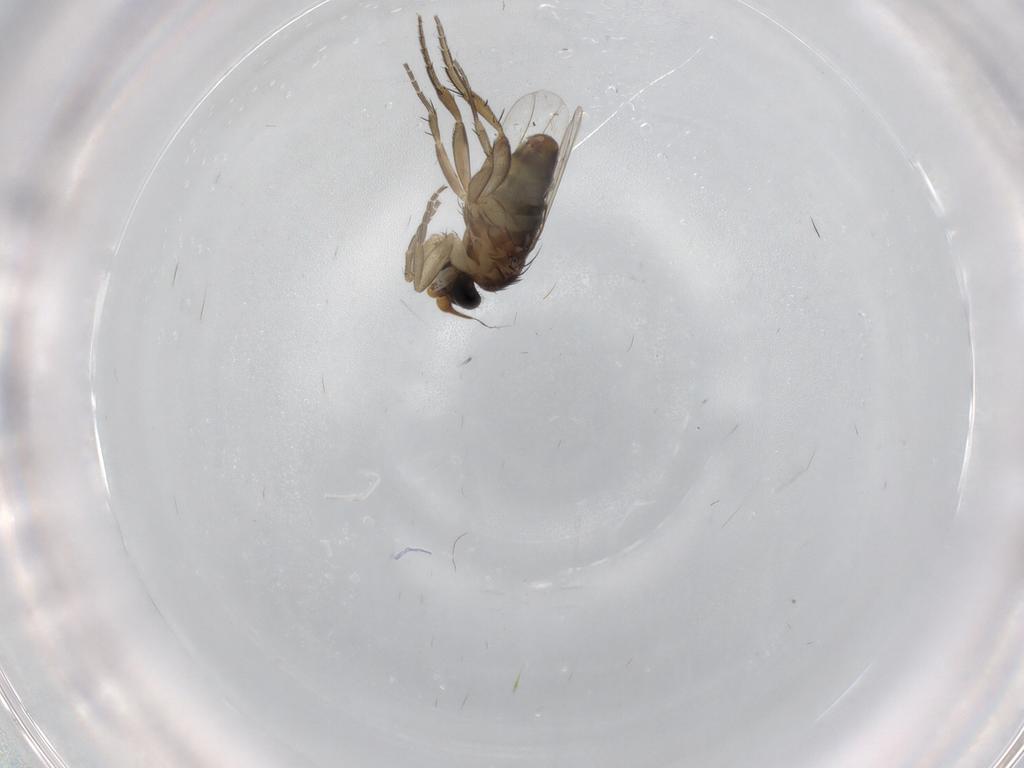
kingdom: Animalia
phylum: Arthropoda
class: Insecta
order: Diptera
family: Phoridae
